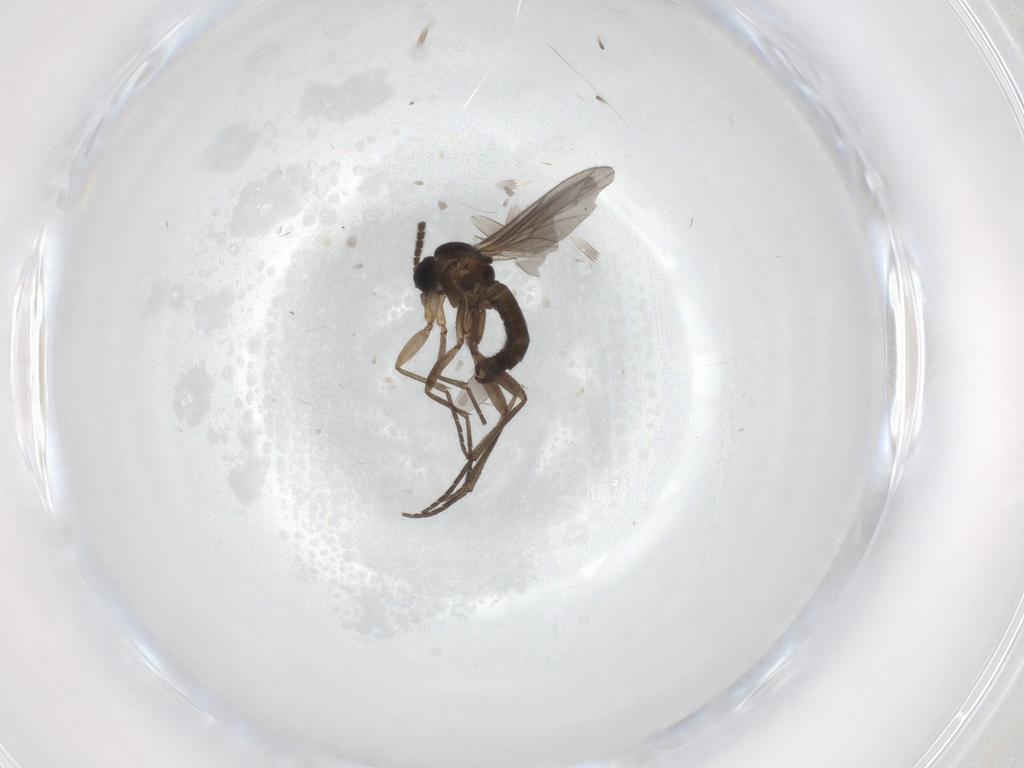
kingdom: Animalia
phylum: Arthropoda
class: Insecta
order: Diptera
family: Psychodidae
